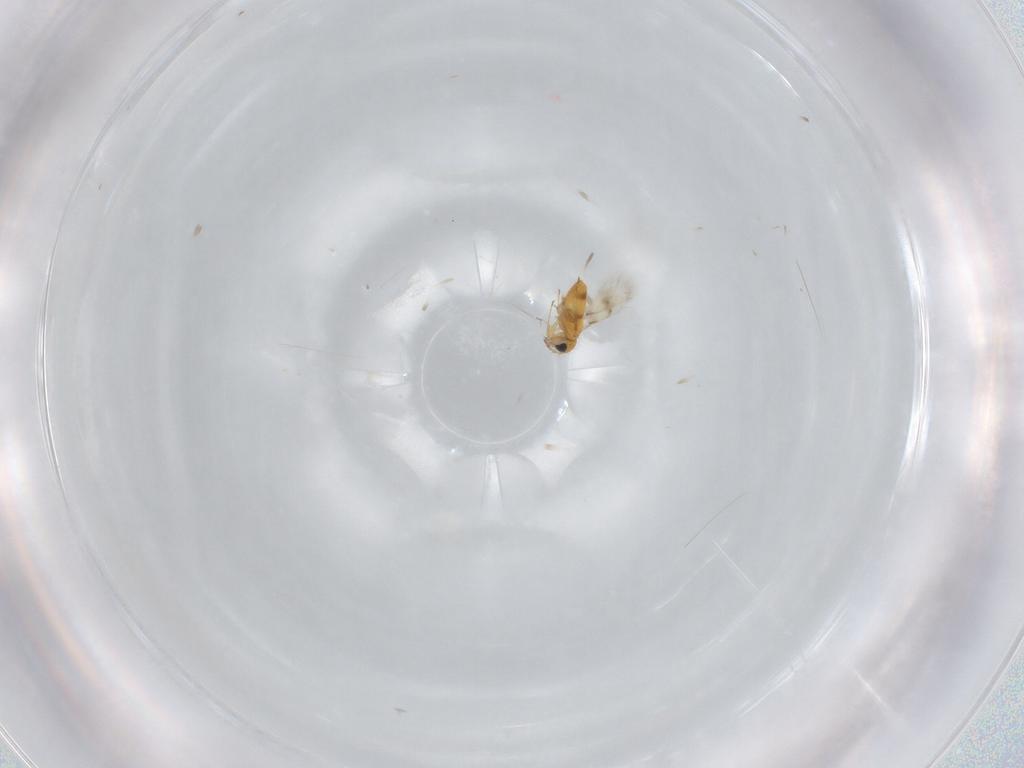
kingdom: Animalia
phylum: Arthropoda
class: Insecta
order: Hymenoptera
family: Aphelinidae
